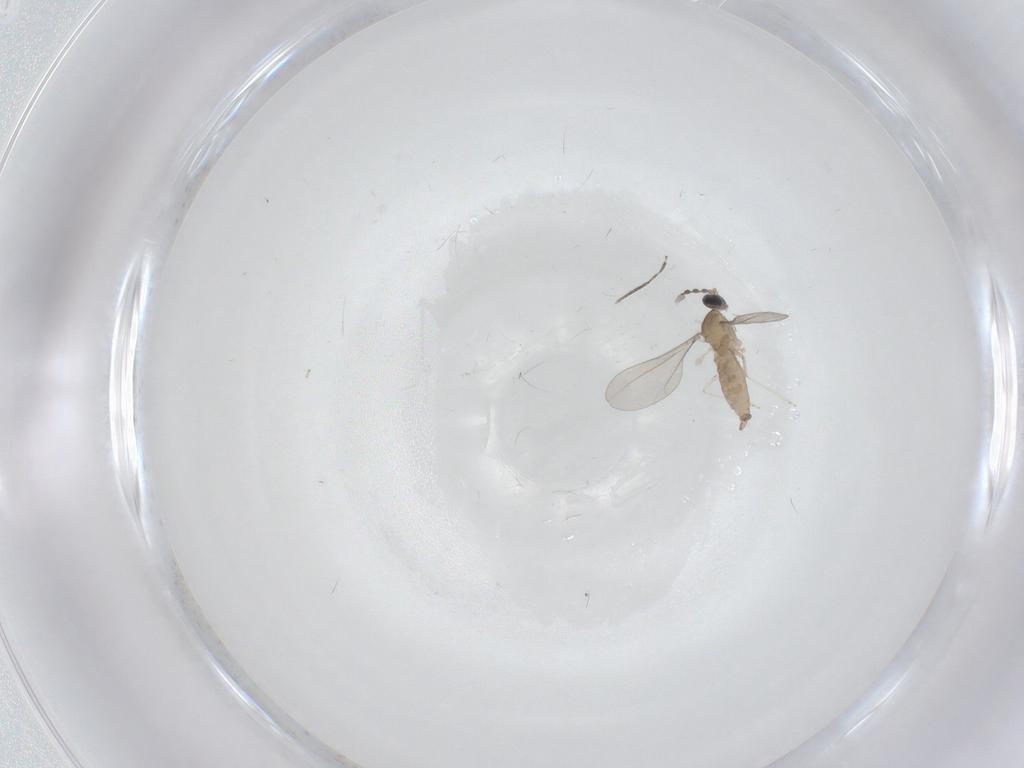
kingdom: Animalia
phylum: Arthropoda
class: Insecta
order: Diptera
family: Cecidomyiidae
